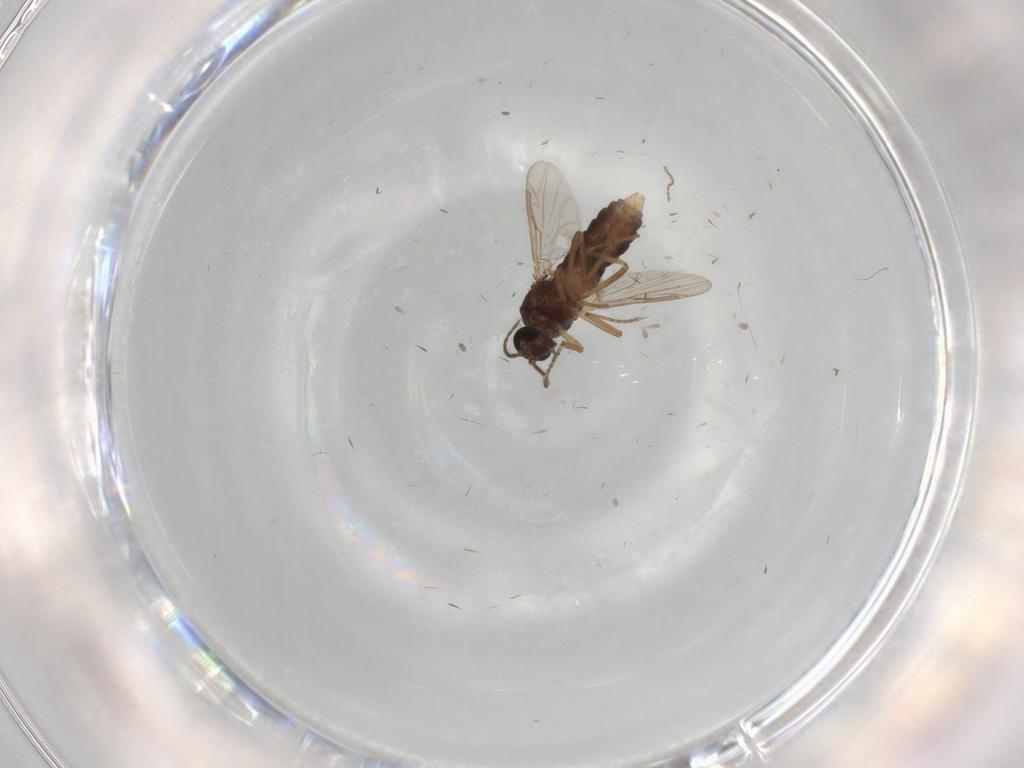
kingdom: Animalia
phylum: Arthropoda
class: Insecta
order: Diptera
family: Ceratopogonidae
